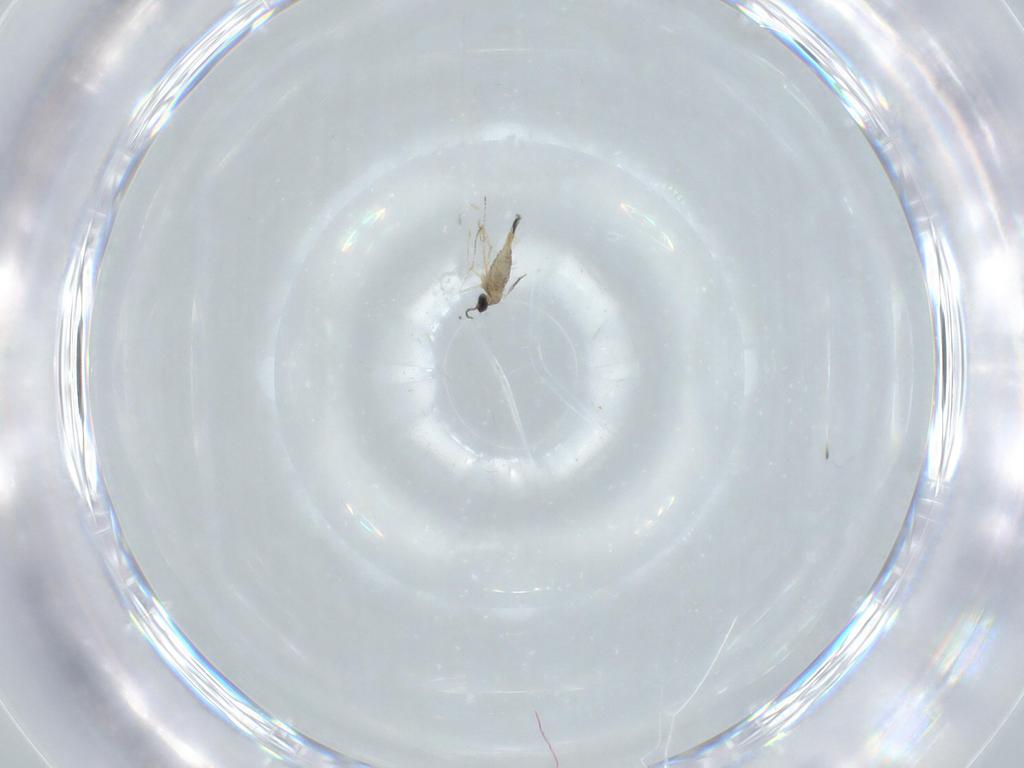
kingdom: Animalia
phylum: Arthropoda
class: Insecta
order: Diptera
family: Cecidomyiidae
